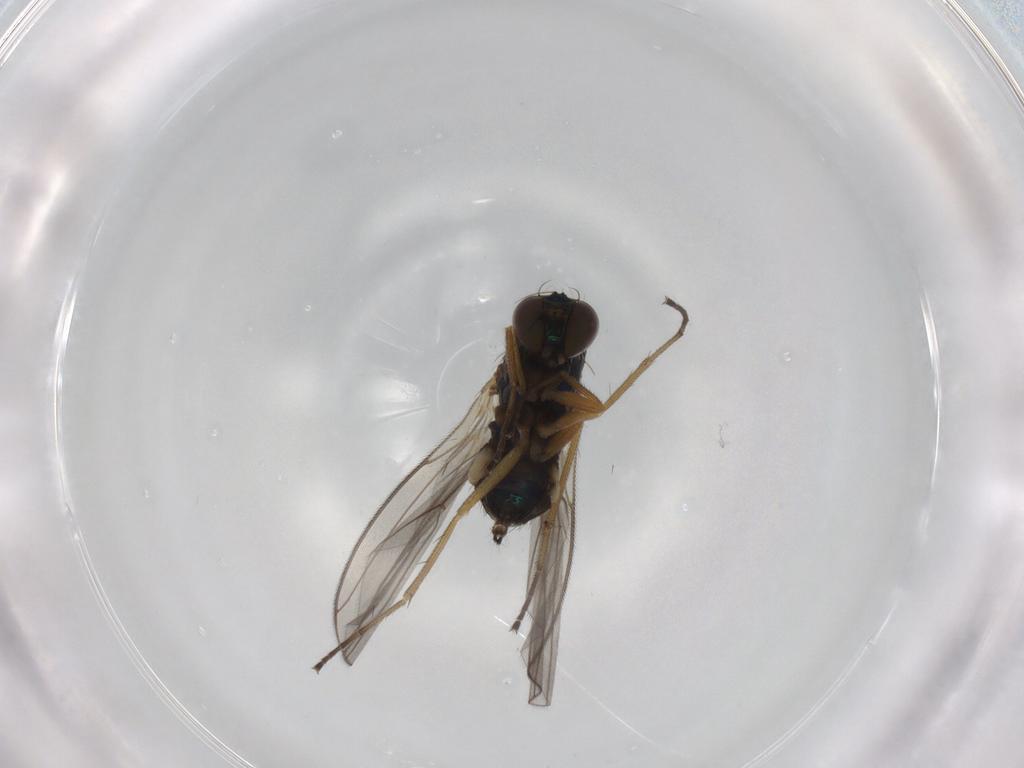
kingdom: Animalia
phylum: Arthropoda
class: Insecta
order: Diptera
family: Dolichopodidae
